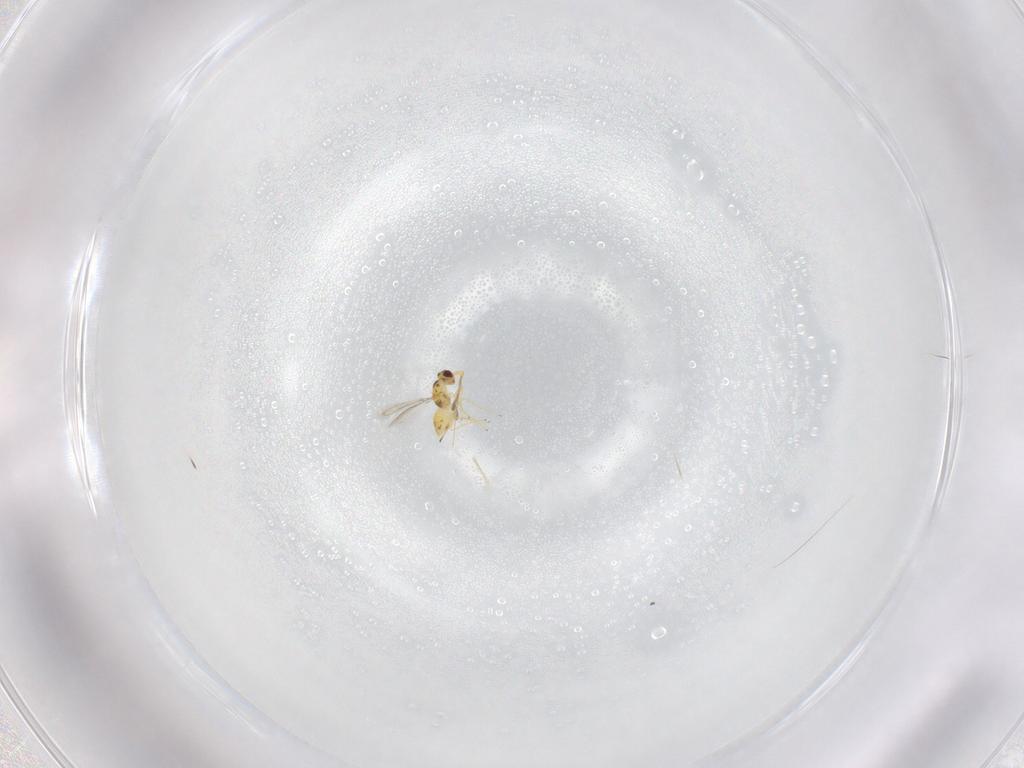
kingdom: Animalia
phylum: Arthropoda
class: Insecta
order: Hymenoptera
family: Mymaridae
